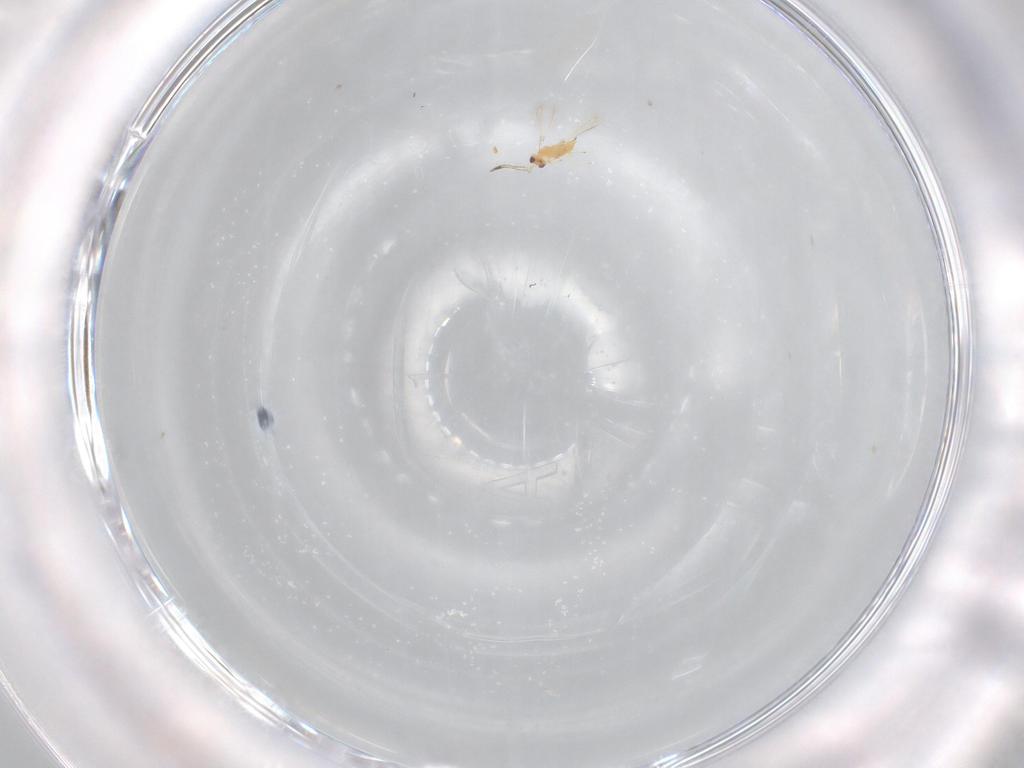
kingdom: Animalia
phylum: Arthropoda
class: Insecta
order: Hymenoptera
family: Mymaridae
